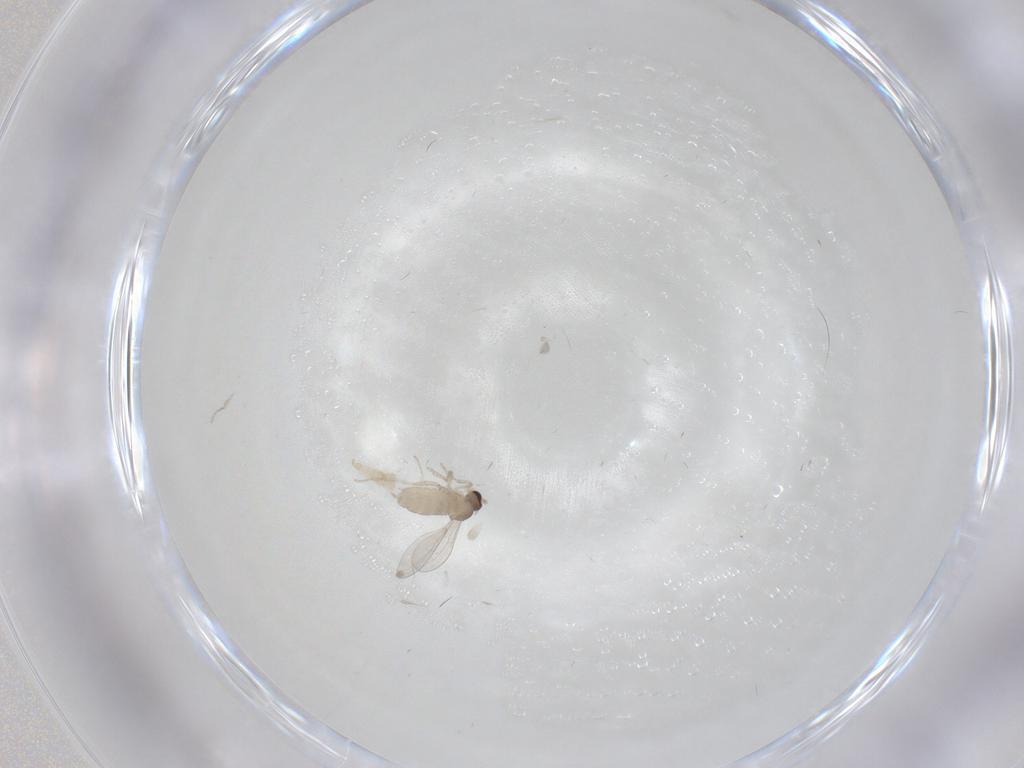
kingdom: Animalia
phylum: Arthropoda
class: Insecta
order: Diptera
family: Cecidomyiidae
